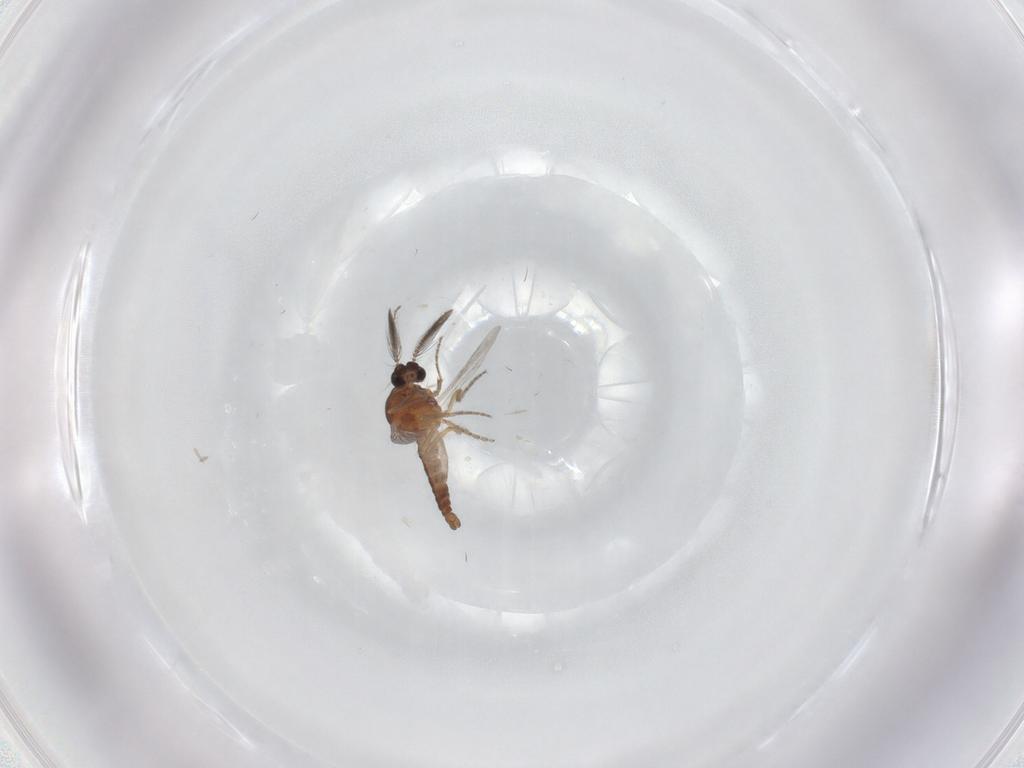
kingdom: Animalia
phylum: Arthropoda
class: Insecta
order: Diptera
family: Ceratopogonidae
